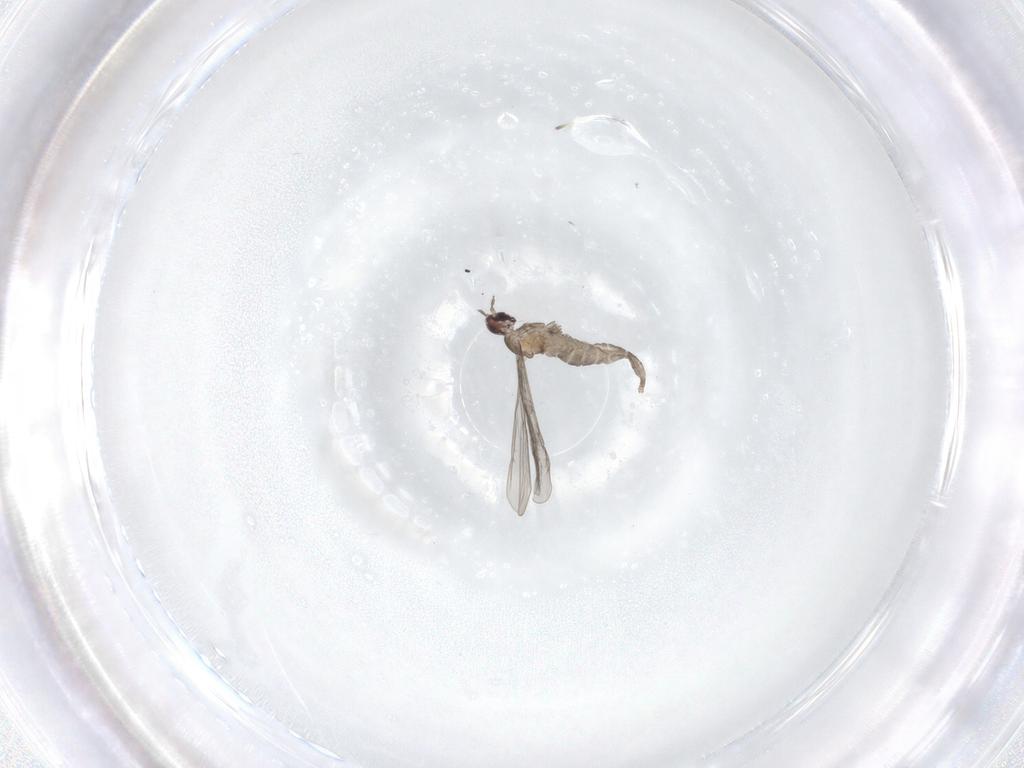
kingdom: Animalia
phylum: Arthropoda
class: Insecta
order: Diptera
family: Cecidomyiidae
